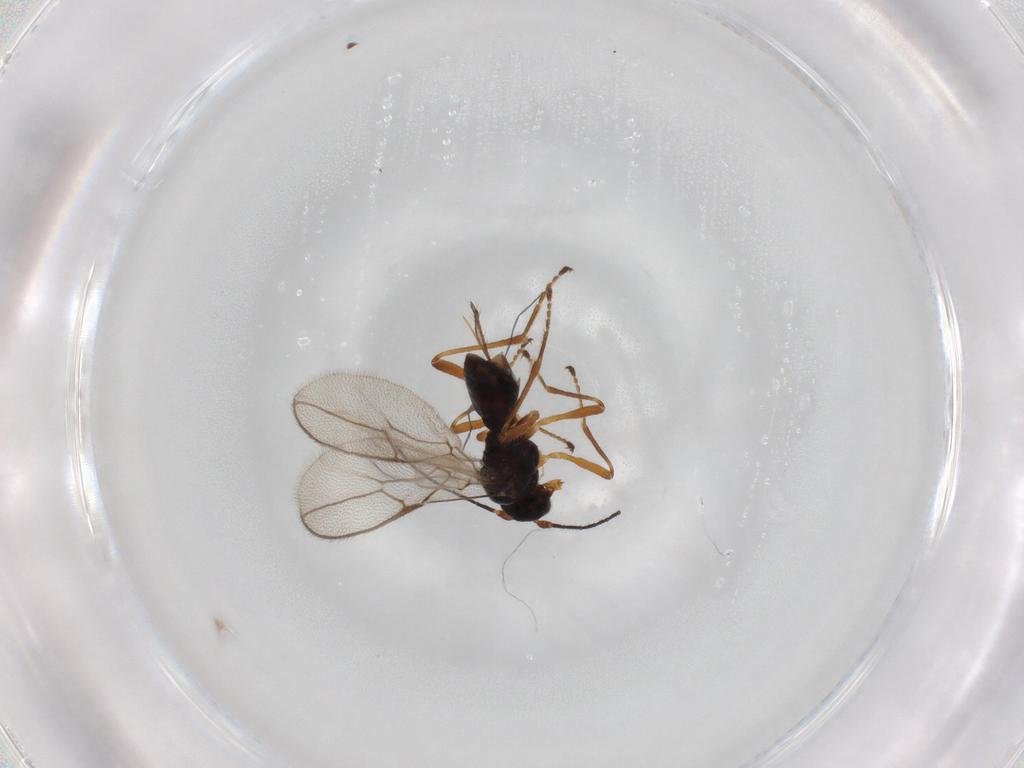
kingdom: Animalia
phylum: Arthropoda
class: Insecta
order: Hymenoptera
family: Braconidae
